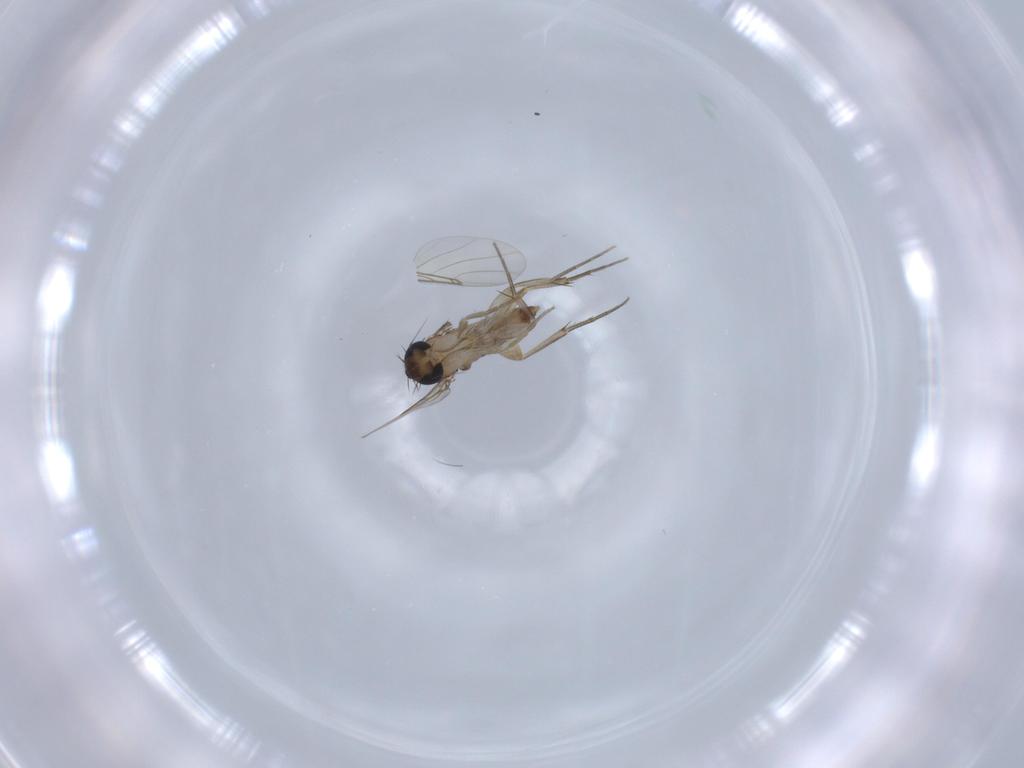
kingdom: Animalia
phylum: Arthropoda
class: Insecta
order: Diptera
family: Phoridae
